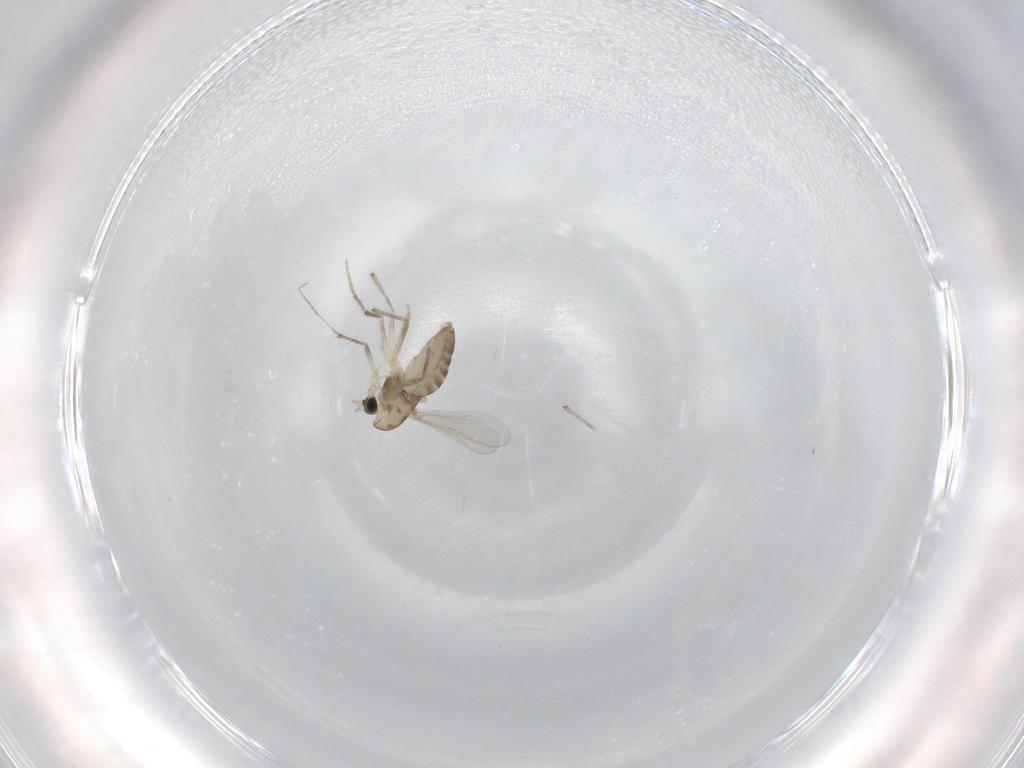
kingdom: Animalia
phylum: Arthropoda
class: Insecta
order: Diptera
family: Chironomidae
